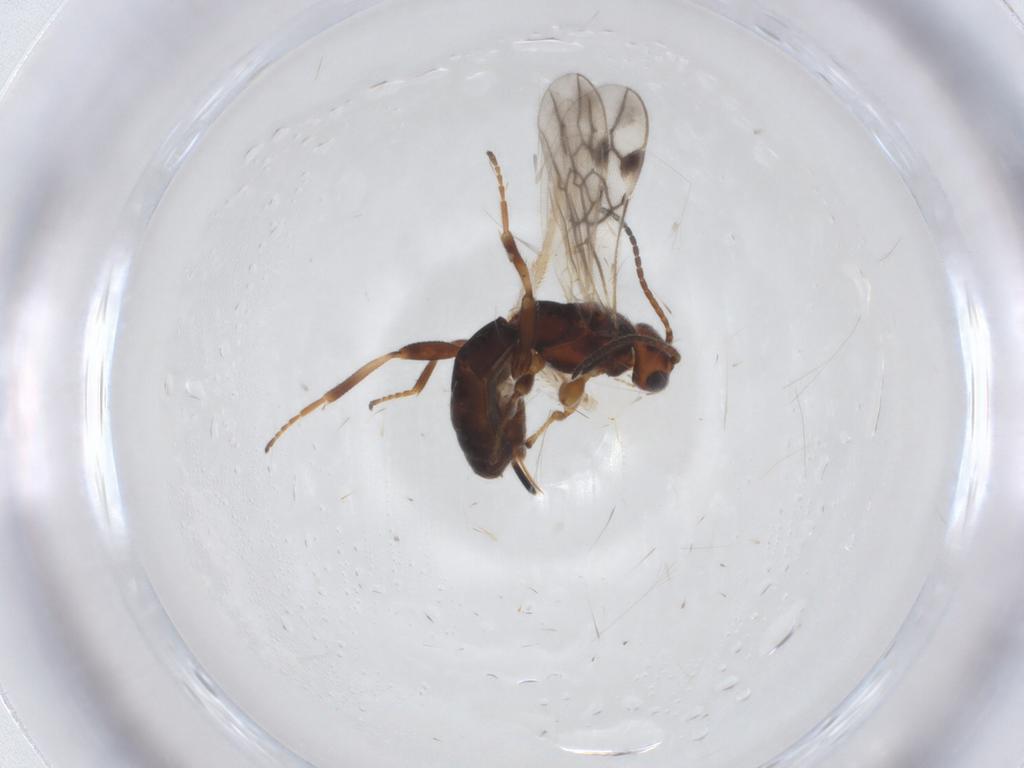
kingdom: Animalia
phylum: Arthropoda
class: Insecta
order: Hymenoptera
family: Braconidae
